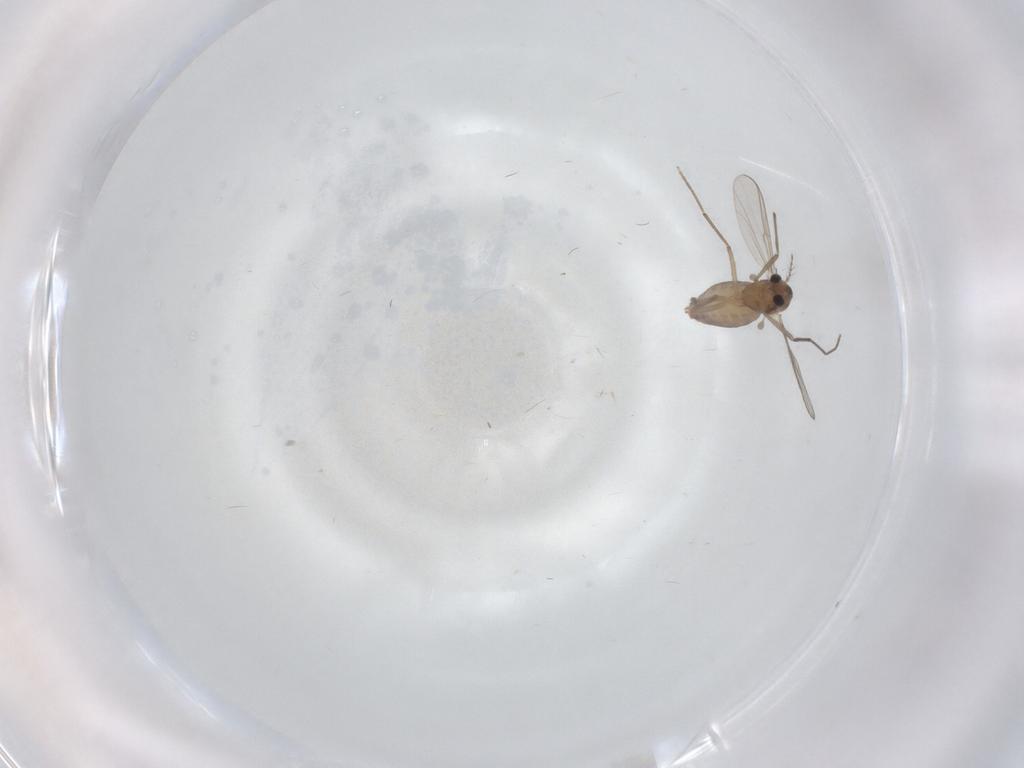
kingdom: Animalia
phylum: Arthropoda
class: Insecta
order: Diptera
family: Chironomidae
